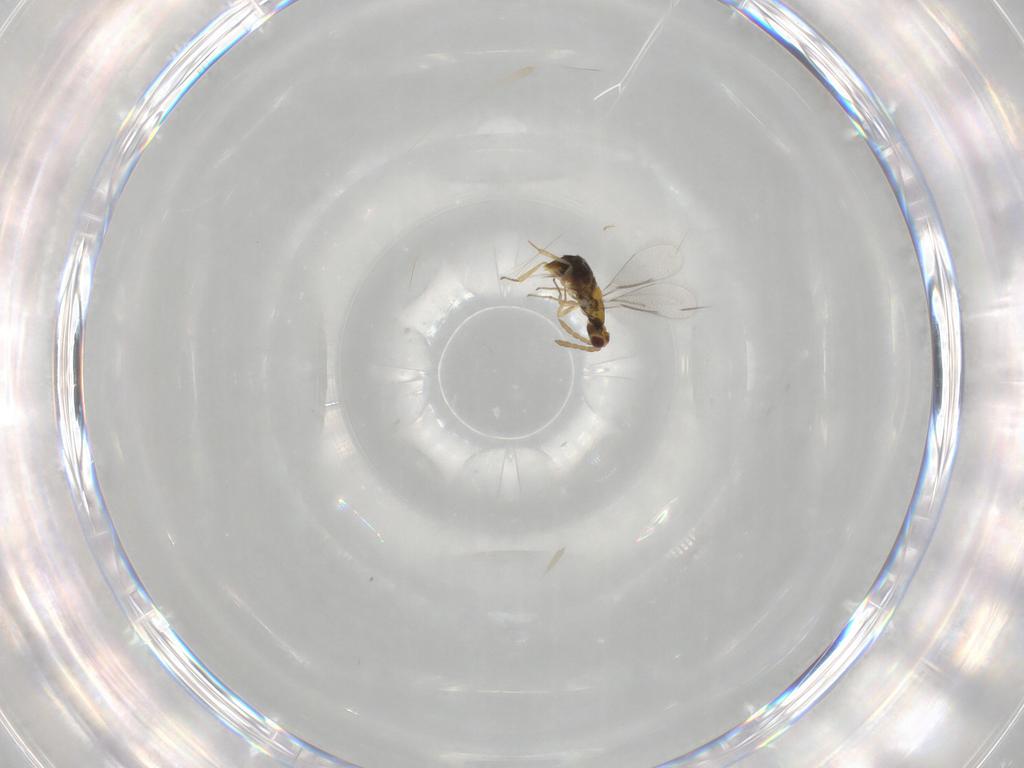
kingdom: Animalia
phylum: Arthropoda
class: Insecta
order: Hymenoptera
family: Aphelinidae
